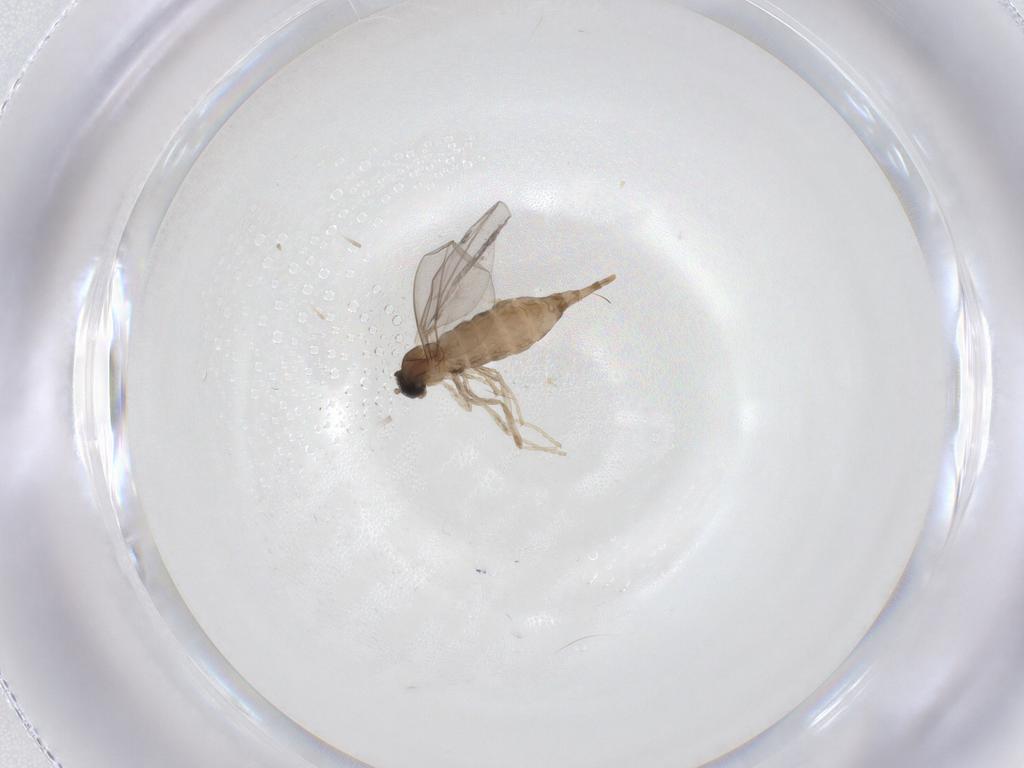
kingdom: Animalia
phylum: Arthropoda
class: Insecta
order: Diptera
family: Cecidomyiidae
